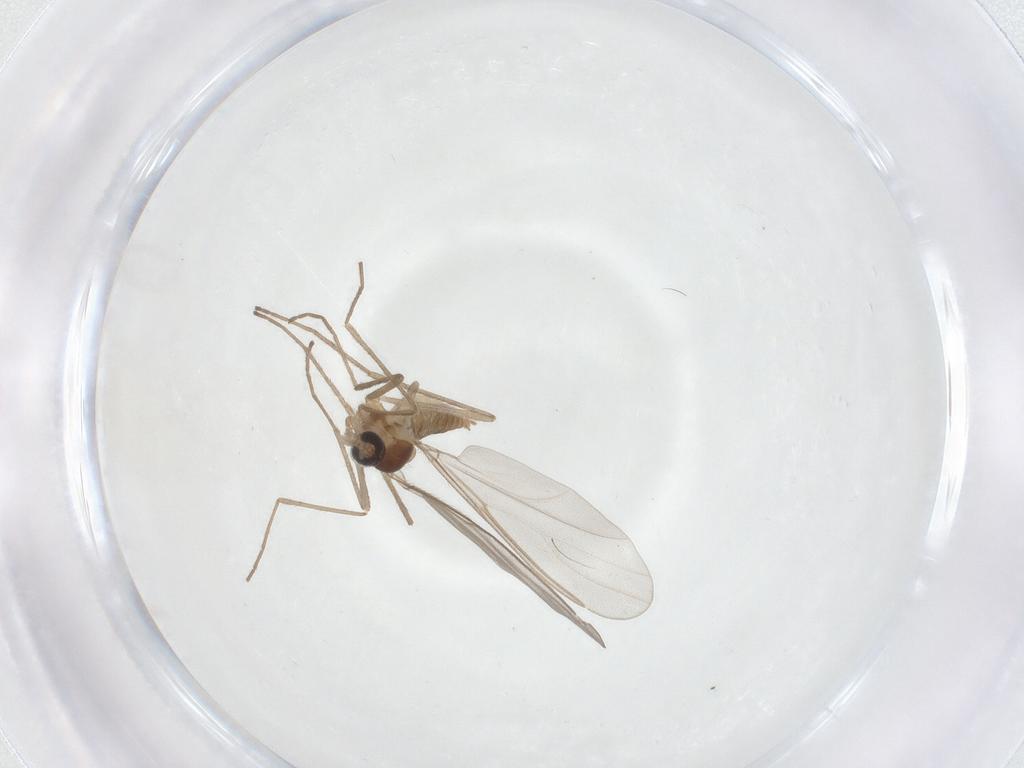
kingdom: Animalia
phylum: Arthropoda
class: Insecta
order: Diptera
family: Cecidomyiidae
